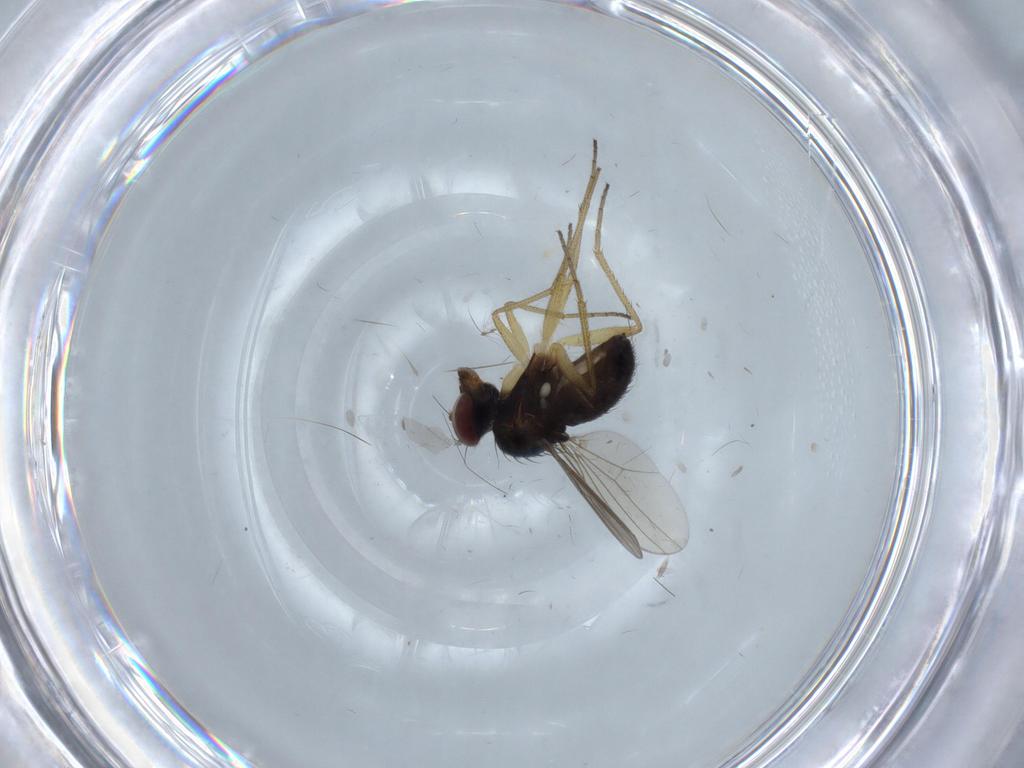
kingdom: Animalia
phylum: Arthropoda
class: Insecta
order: Diptera
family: Dolichopodidae
